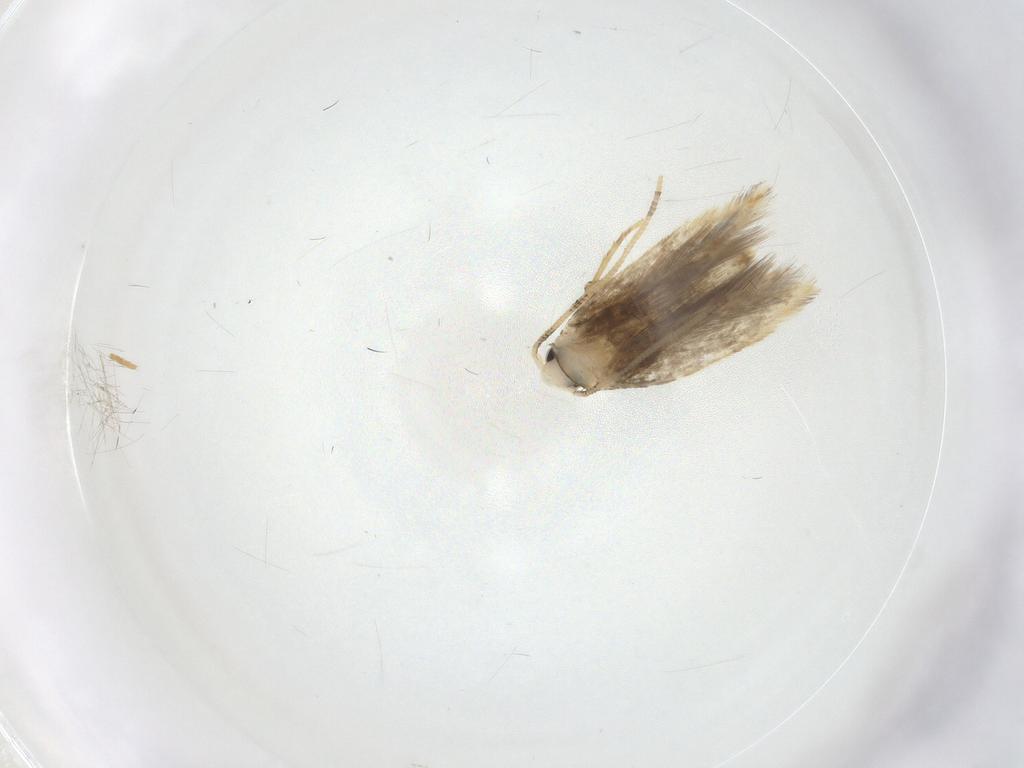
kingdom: Animalia
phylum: Arthropoda
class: Insecta
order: Lepidoptera
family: Tineidae
